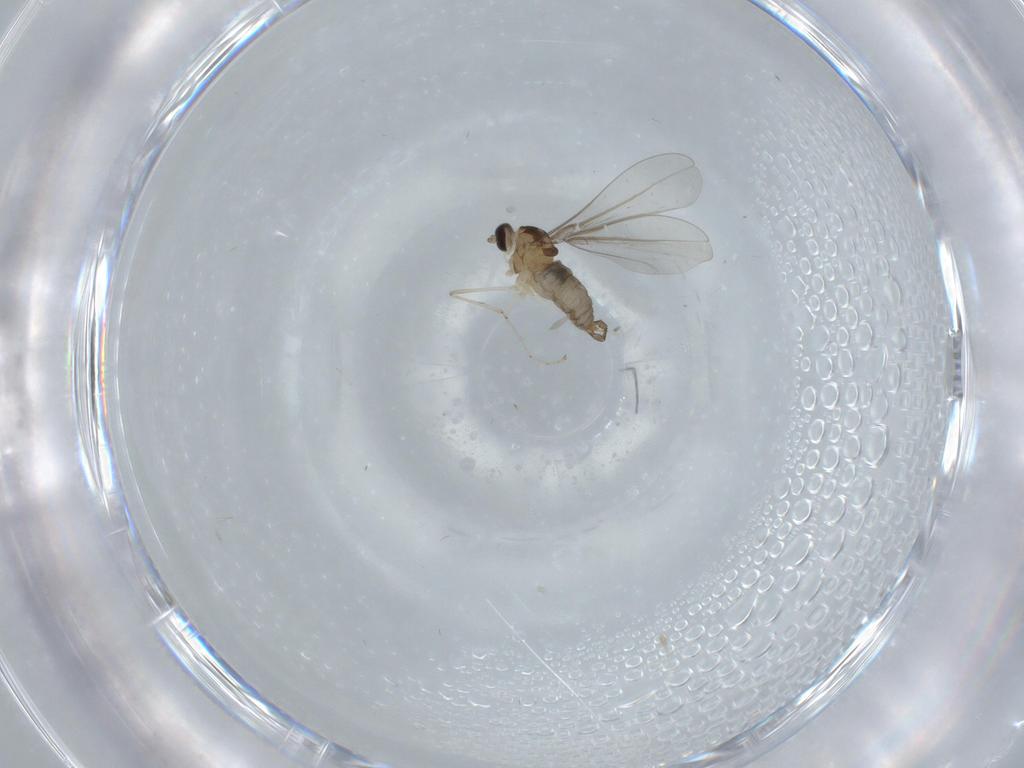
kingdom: Animalia
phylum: Arthropoda
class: Insecta
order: Diptera
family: Cecidomyiidae
